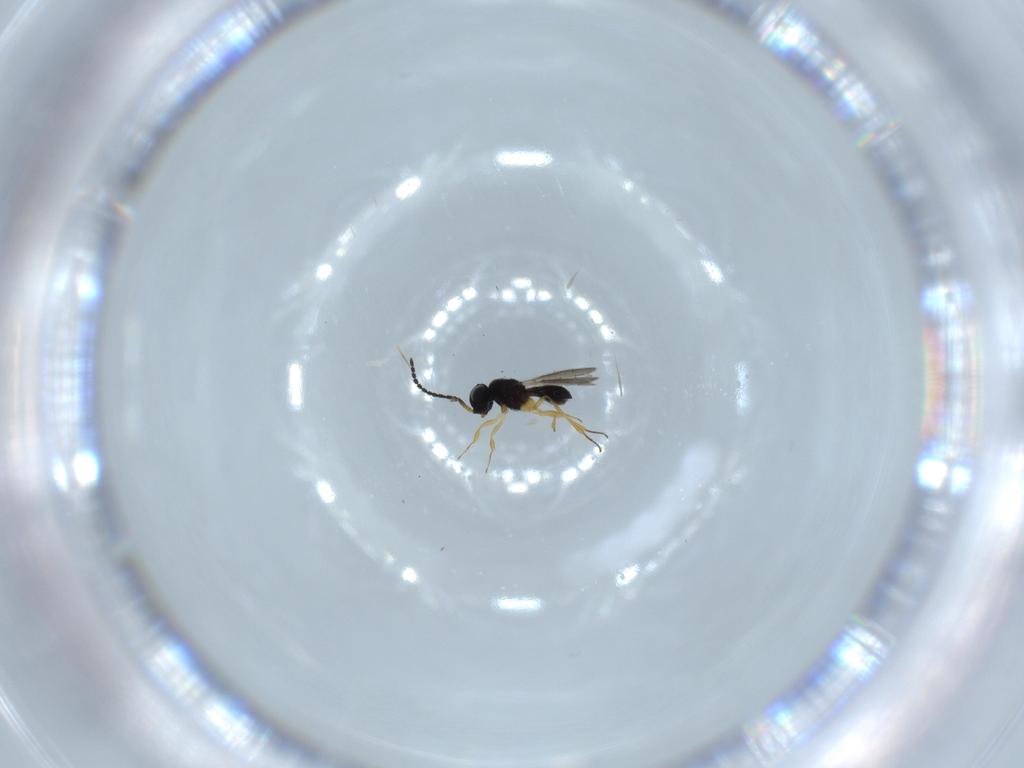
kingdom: Animalia
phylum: Arthropoda
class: Insecta
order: Hymenoptera
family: Scelionidae
